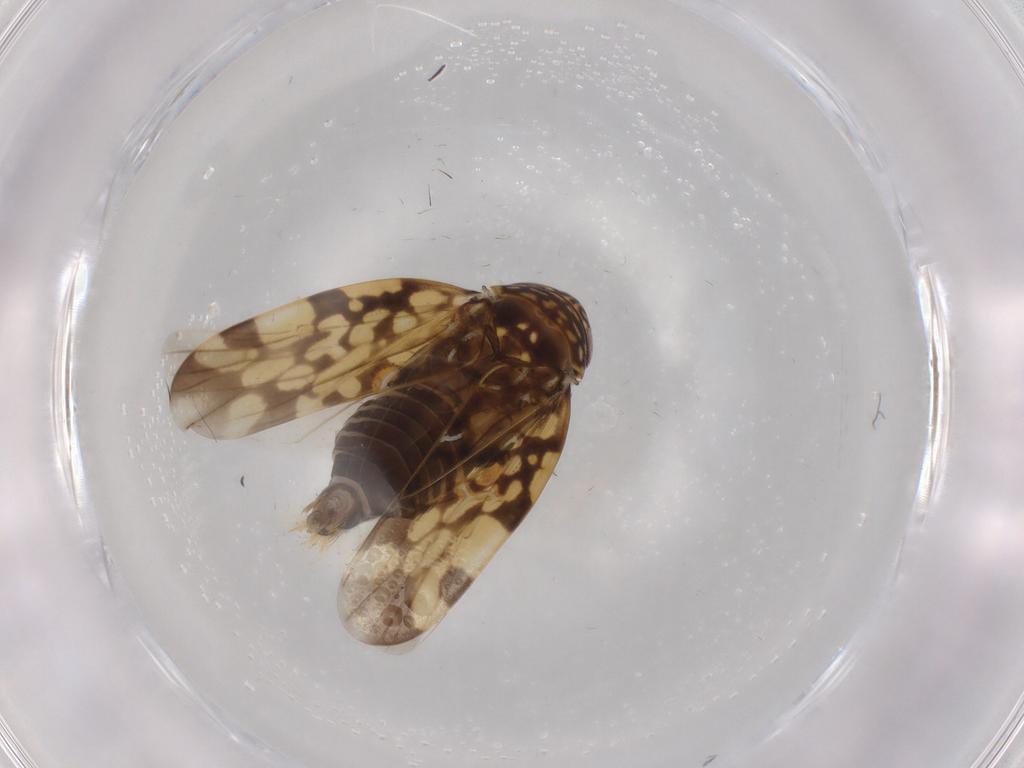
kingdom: Animalia
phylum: Arthropoda
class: Insecta
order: Hemiptera
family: Cicadellidae
